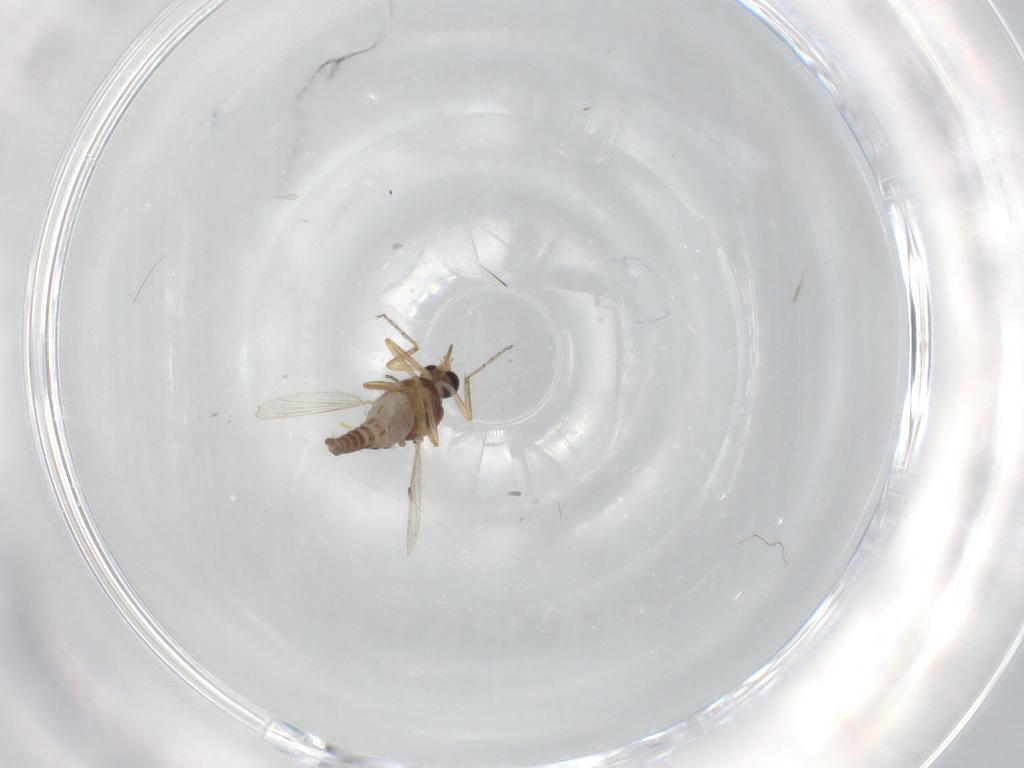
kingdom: Animalia
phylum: Arthropoda
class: Insecta
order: Diptera
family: Ceratopogonidae
